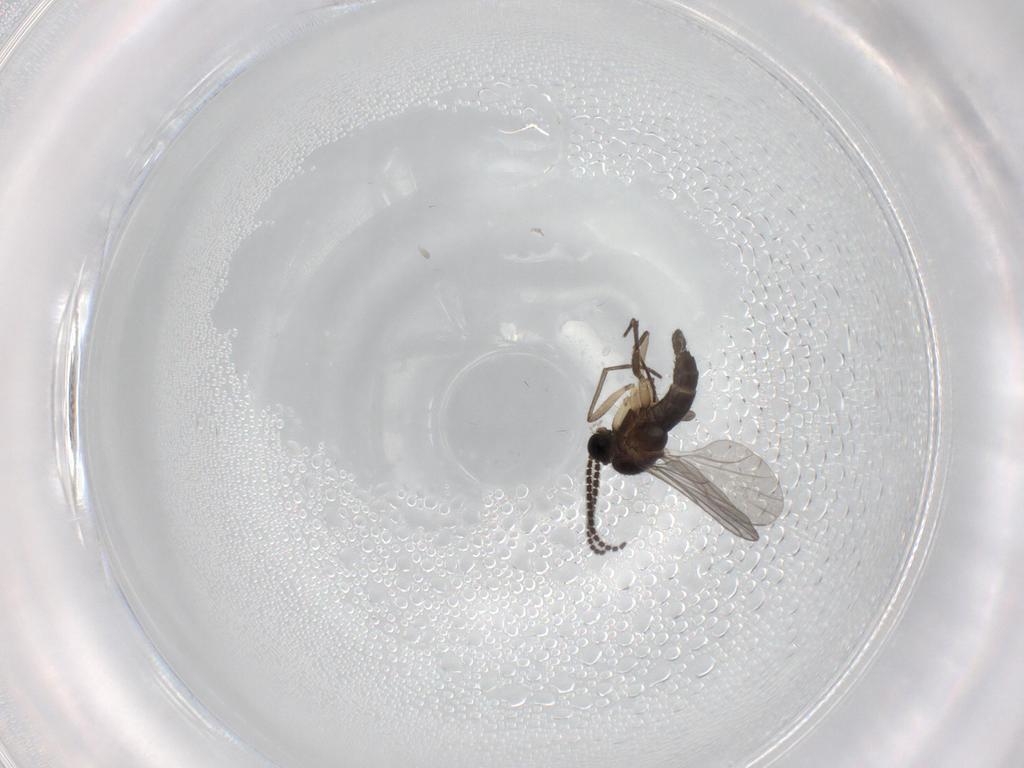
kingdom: Animalia
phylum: Arthropoda
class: Insecta
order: Diptera
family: Sciaridae
